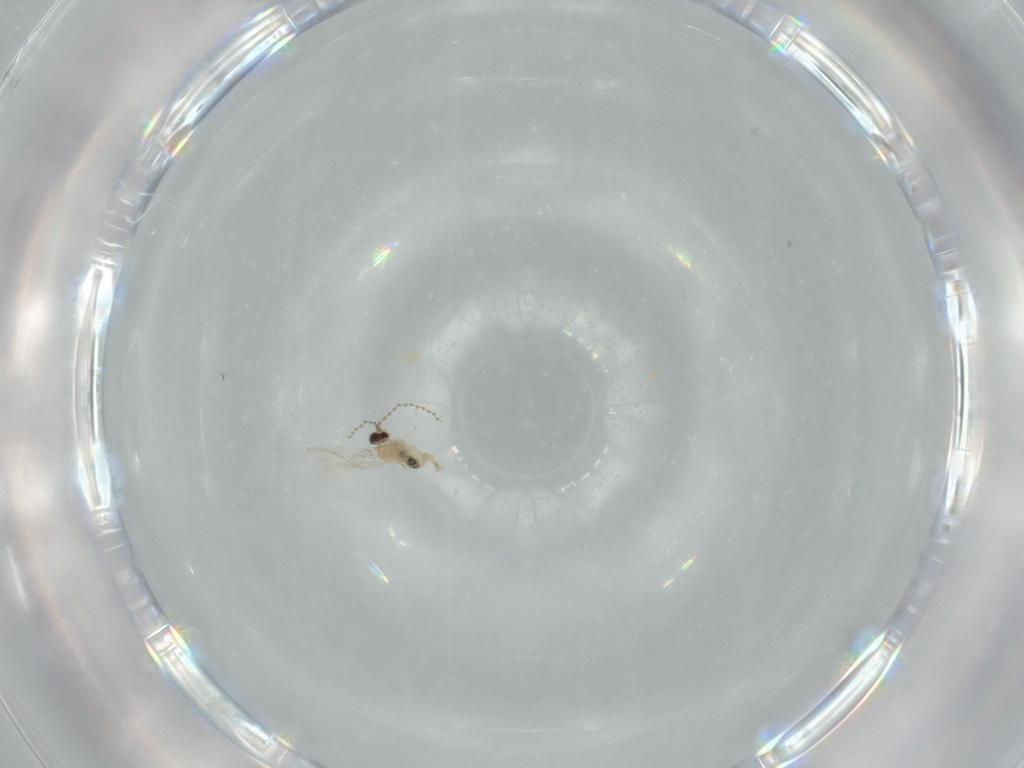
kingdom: Animalia
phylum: Arthropoda
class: Insecta
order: Diptera
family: Cecidomyiidae
